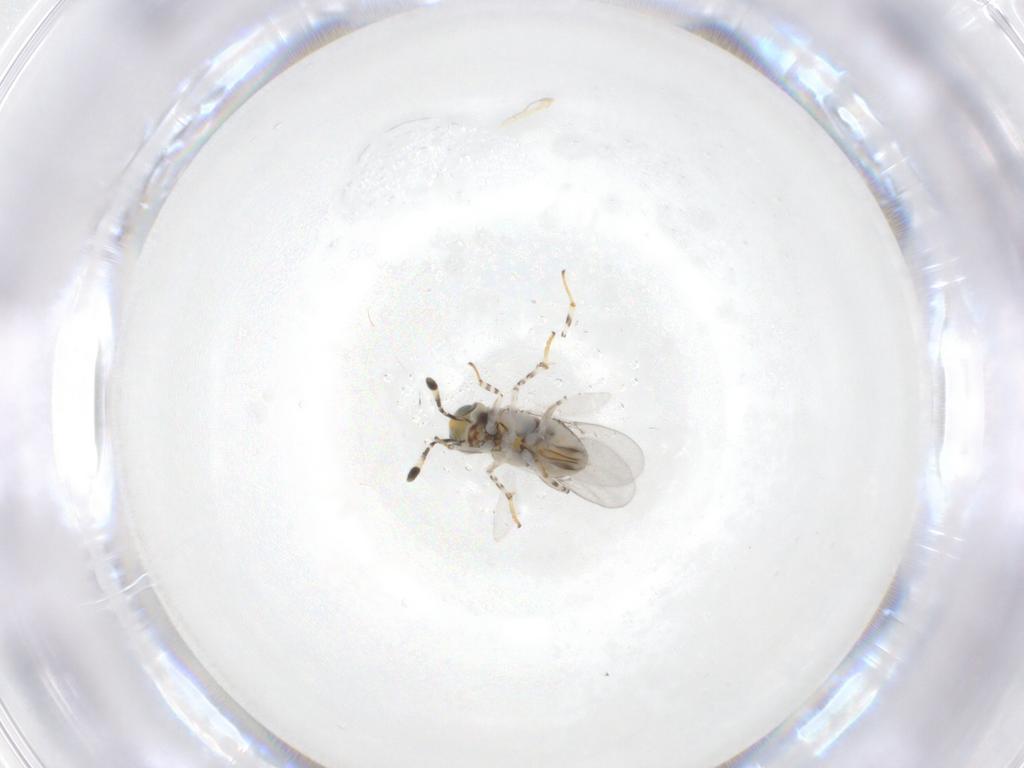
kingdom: Animalia
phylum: Arthropoda
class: Insecta
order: Hymenoptera
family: Encyrtidae
